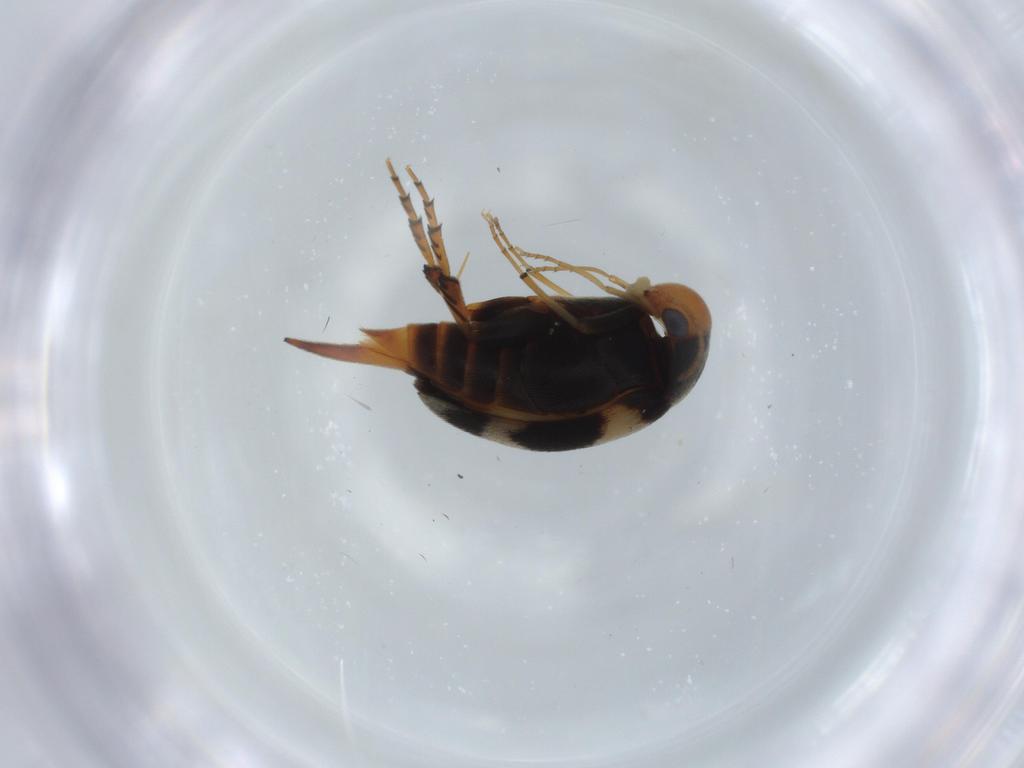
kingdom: Animalia
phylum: Arthropoda
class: Insecta
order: Coleoptera
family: Mordellidae
